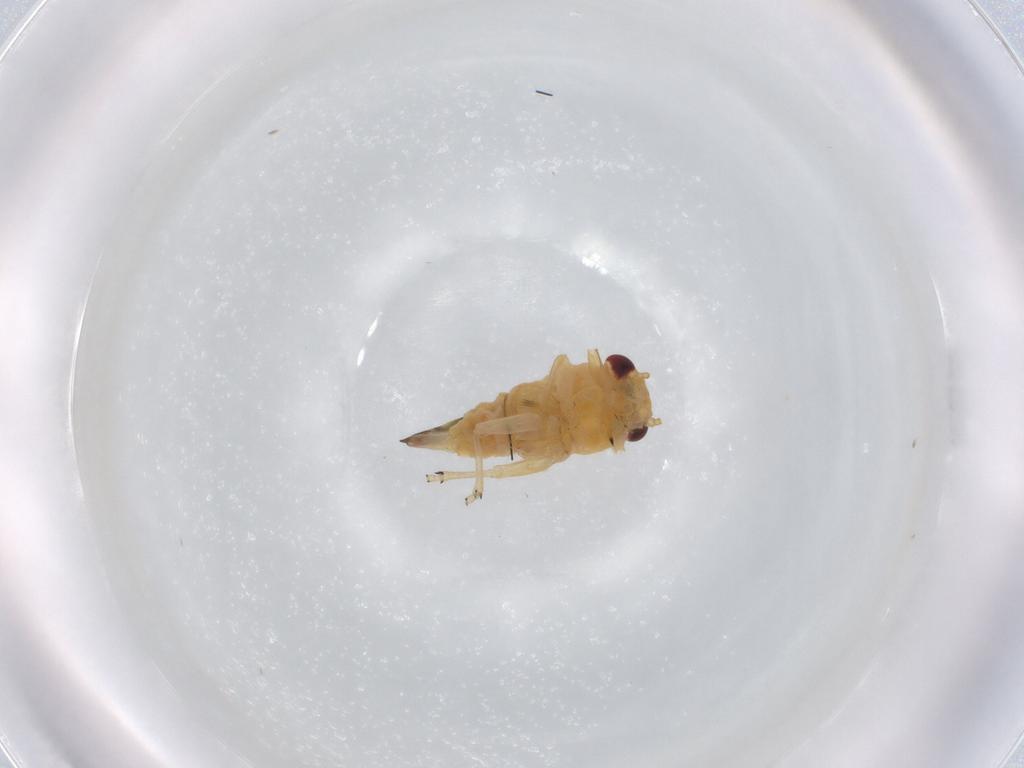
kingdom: Animalia
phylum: Arthropoda
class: Insecta
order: Hemiptera
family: Psyllidae
